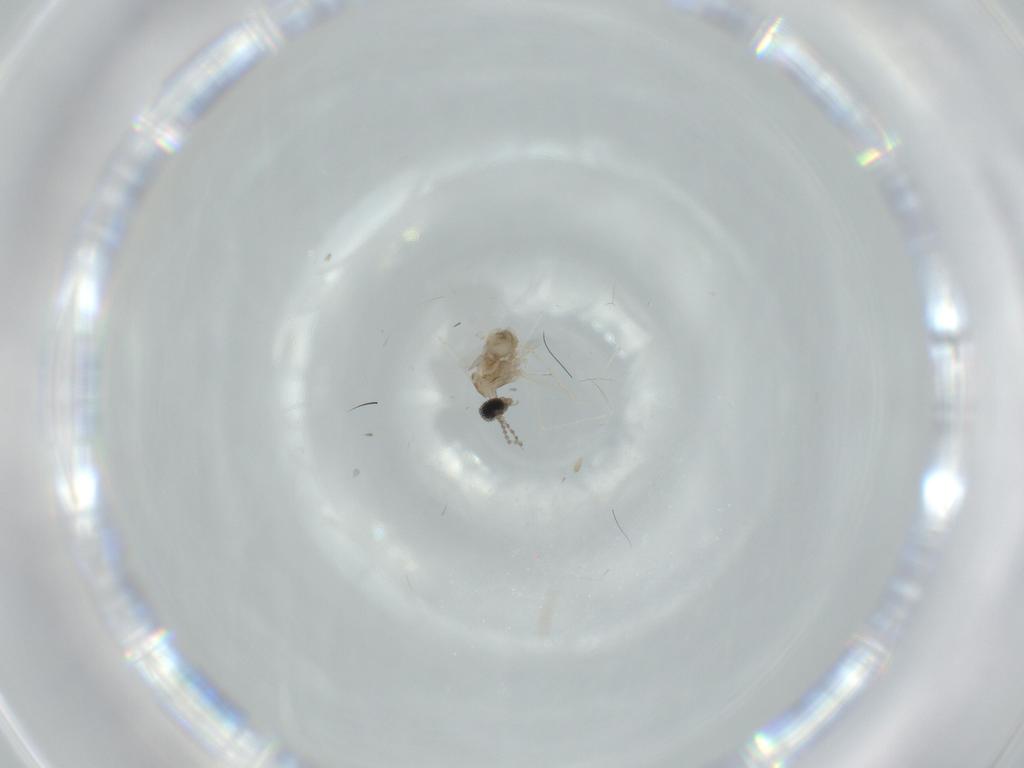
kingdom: Animalia
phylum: Arthropoda
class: Insecta
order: Diptera
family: Cecidomyiidae
